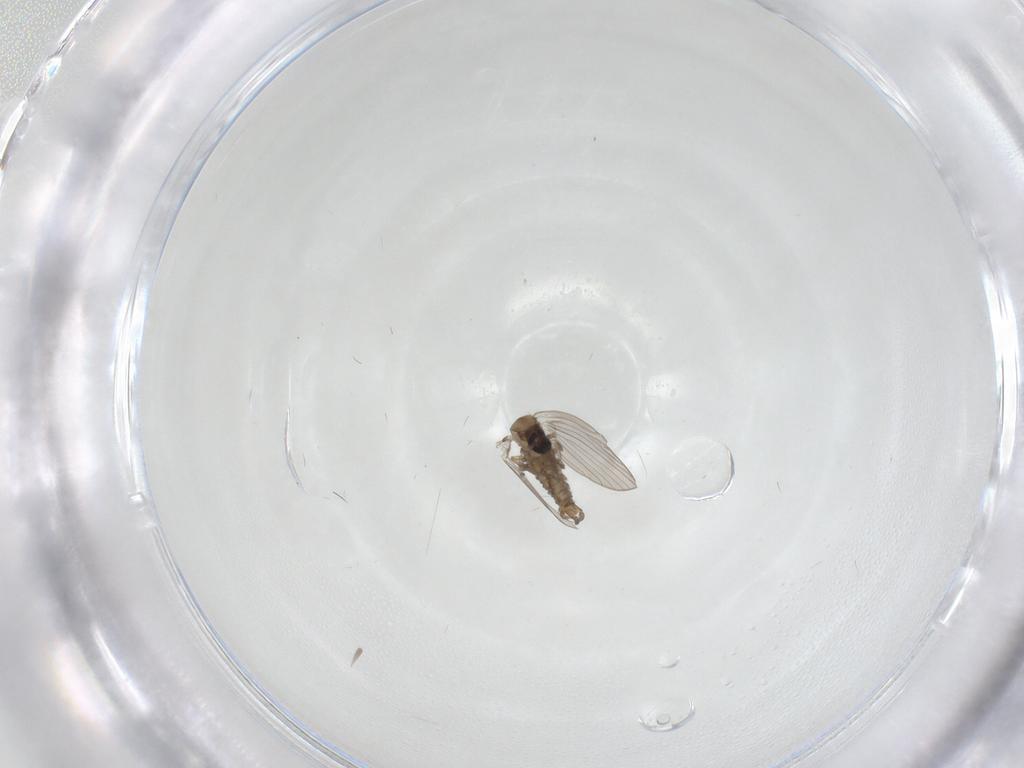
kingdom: Animalia
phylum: Arthropoda
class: Insecta
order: Diptera
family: Psychodidae
